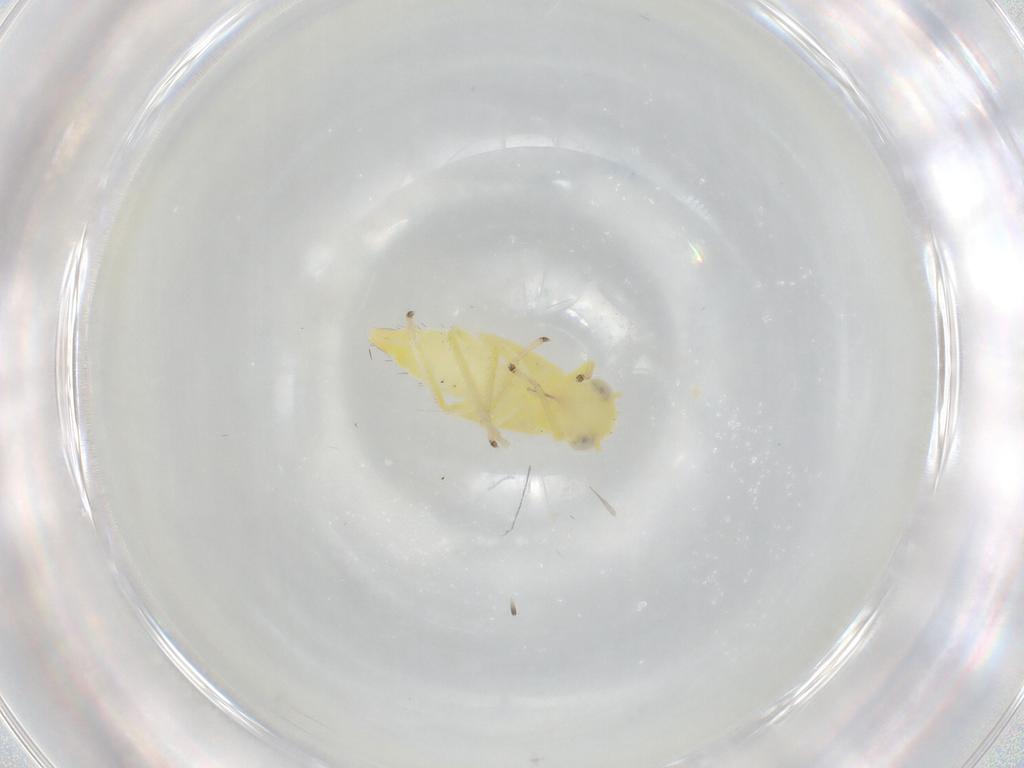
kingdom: Animalia
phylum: Arthropoda
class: Insecta
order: Hemiptera
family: Cicadellidae
